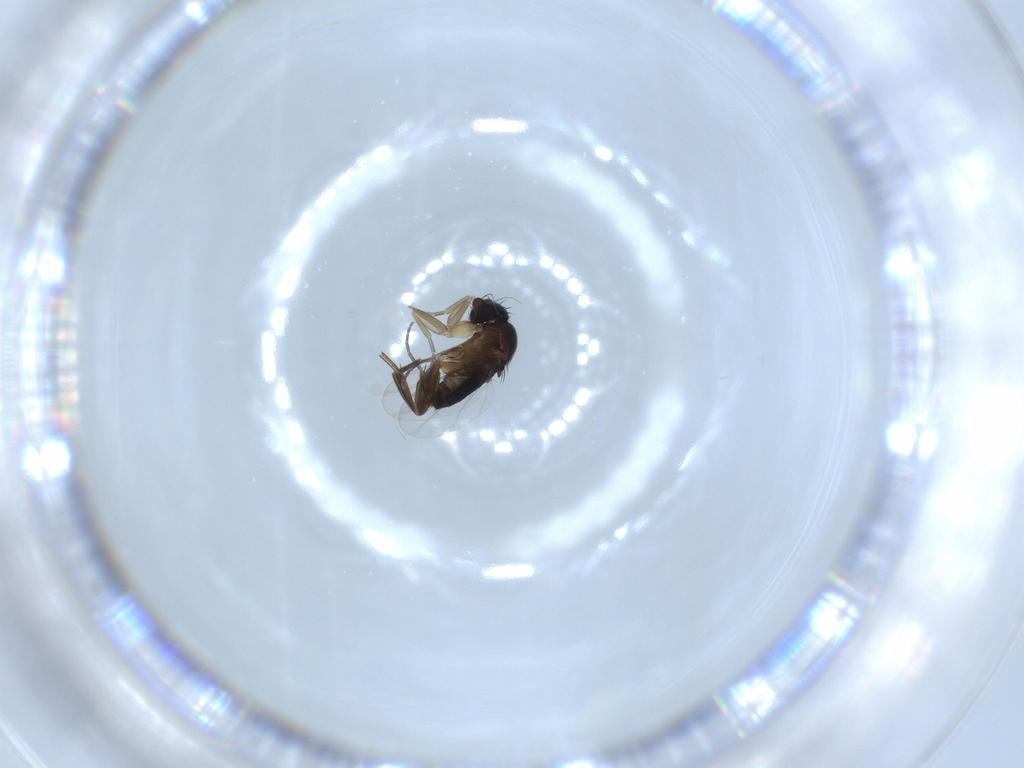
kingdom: Animalia
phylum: Arthropoda
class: Insecta
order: Diptera
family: Phoridae
